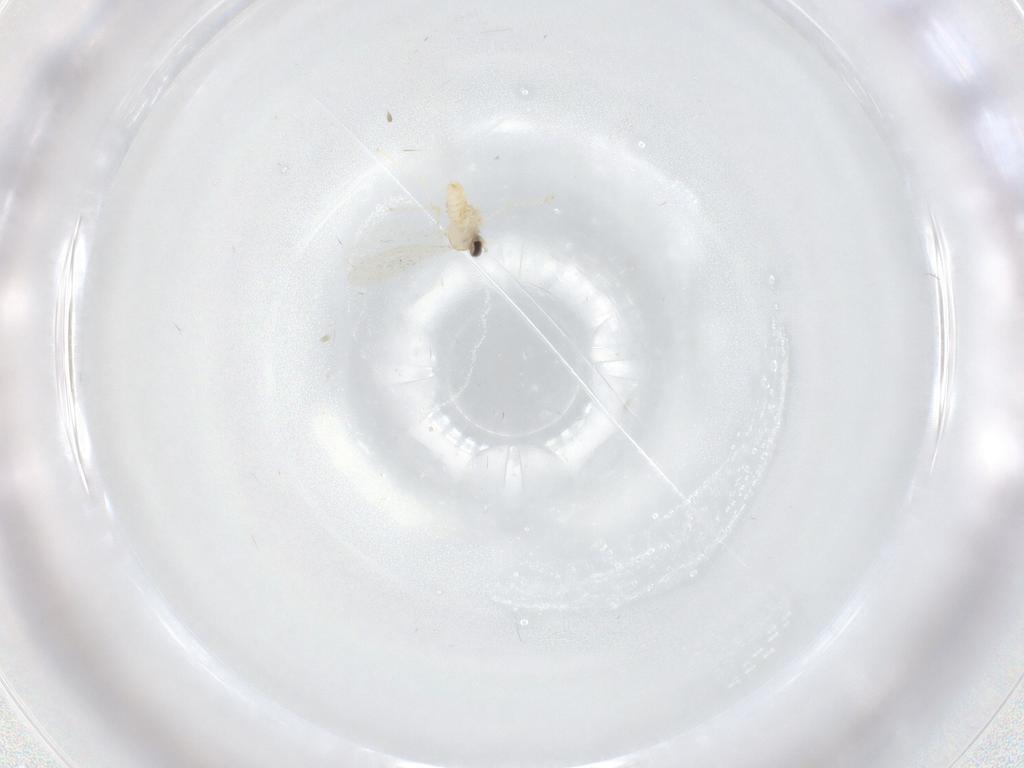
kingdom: Animalia
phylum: Arthropoda
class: Insecta
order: Diptera
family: Cecidomyiidae
